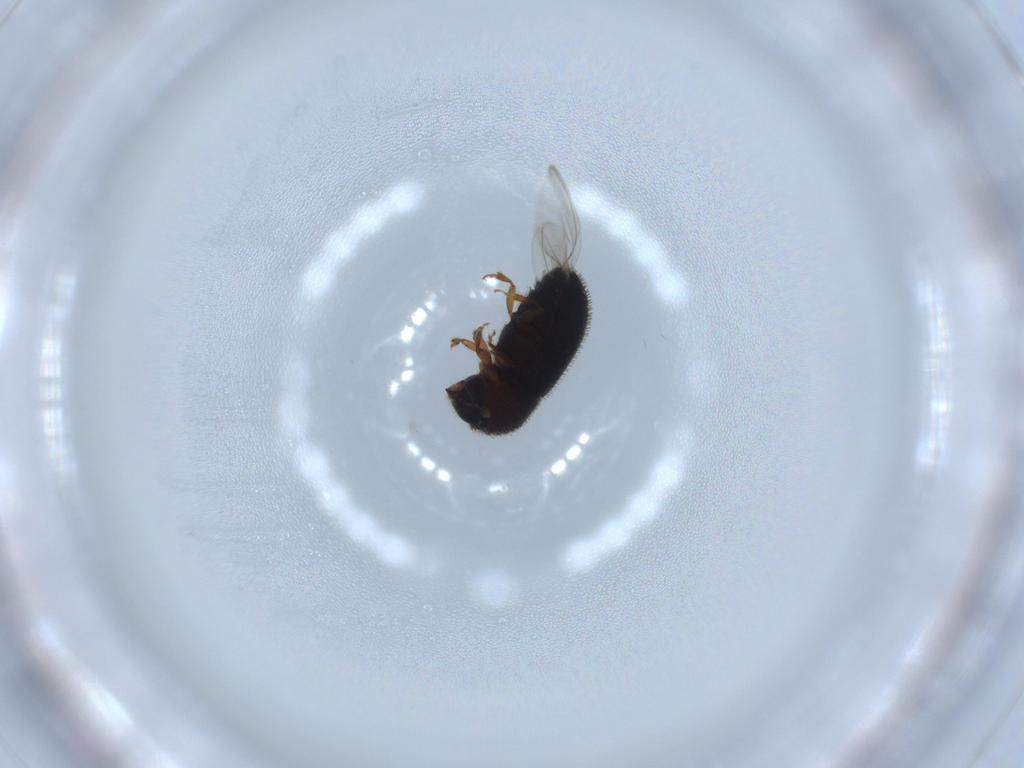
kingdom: Animalia
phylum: Arthropoda
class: Insecta
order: Coleoptera
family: Curculionidae
